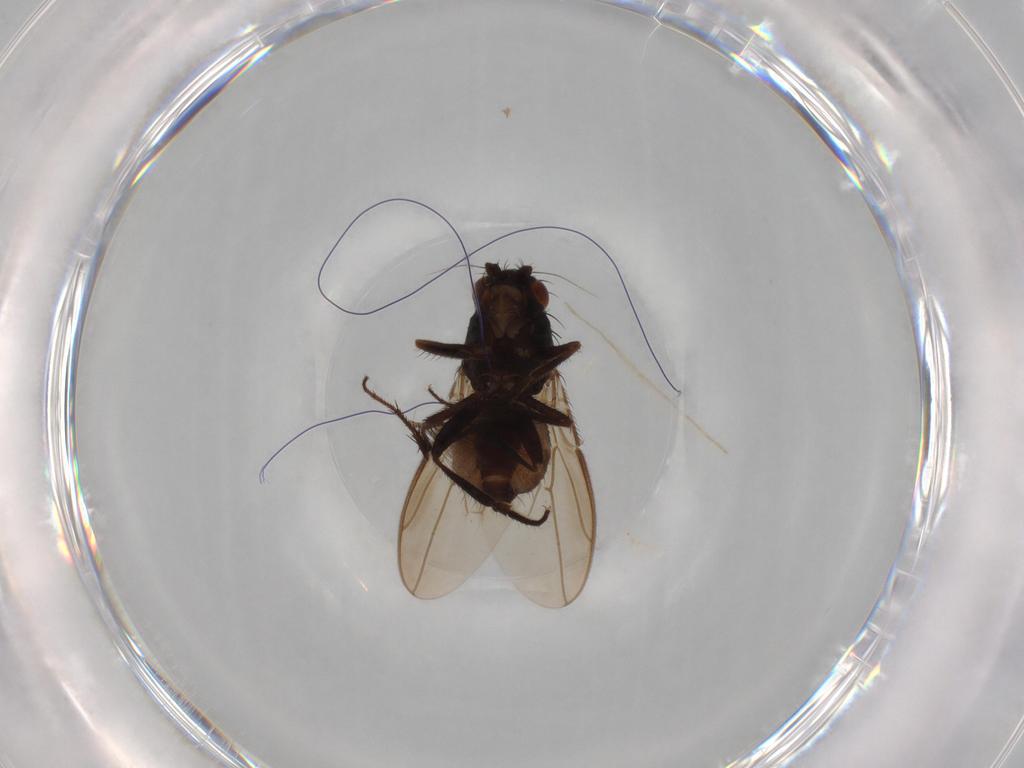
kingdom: Animalia
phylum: Arthropoda
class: Insecta
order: Diptera
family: Sphaeroceridae
